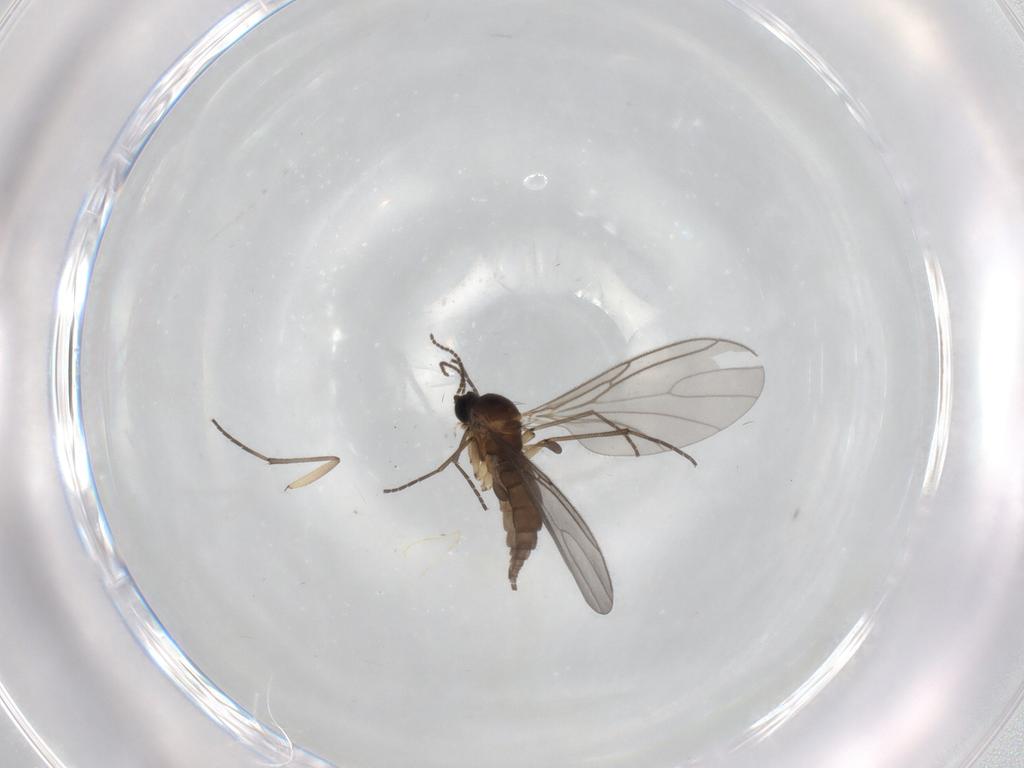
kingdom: Animalia
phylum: Arthropoda
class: Insecta
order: Diptera
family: Sciaridae
